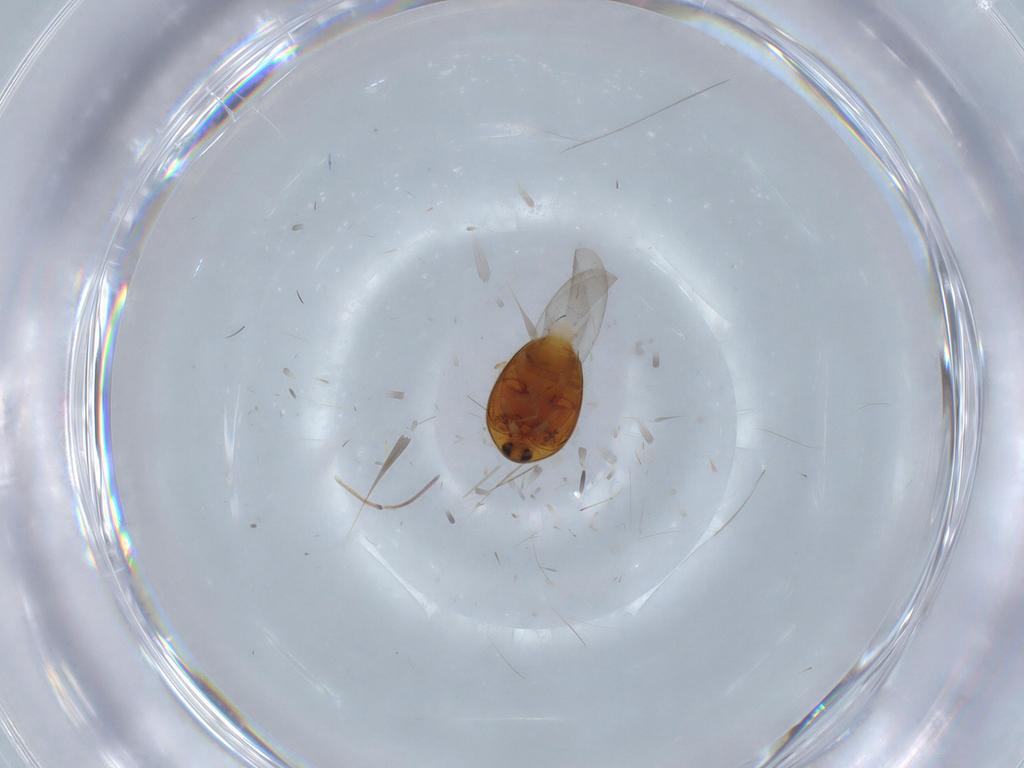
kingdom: Animalia
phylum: Arthropoda
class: Insecta
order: Coleoptera
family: Corylophidae
